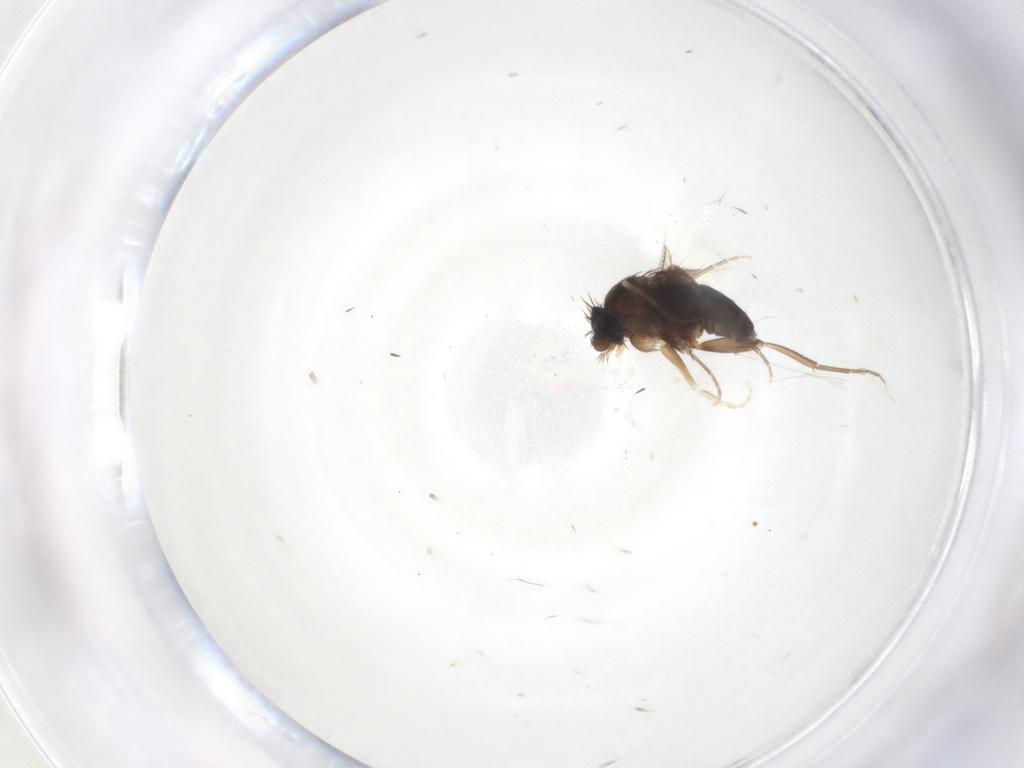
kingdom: Animalia
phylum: Arthropoda
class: Insecta
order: Diptera
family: Phoridae
